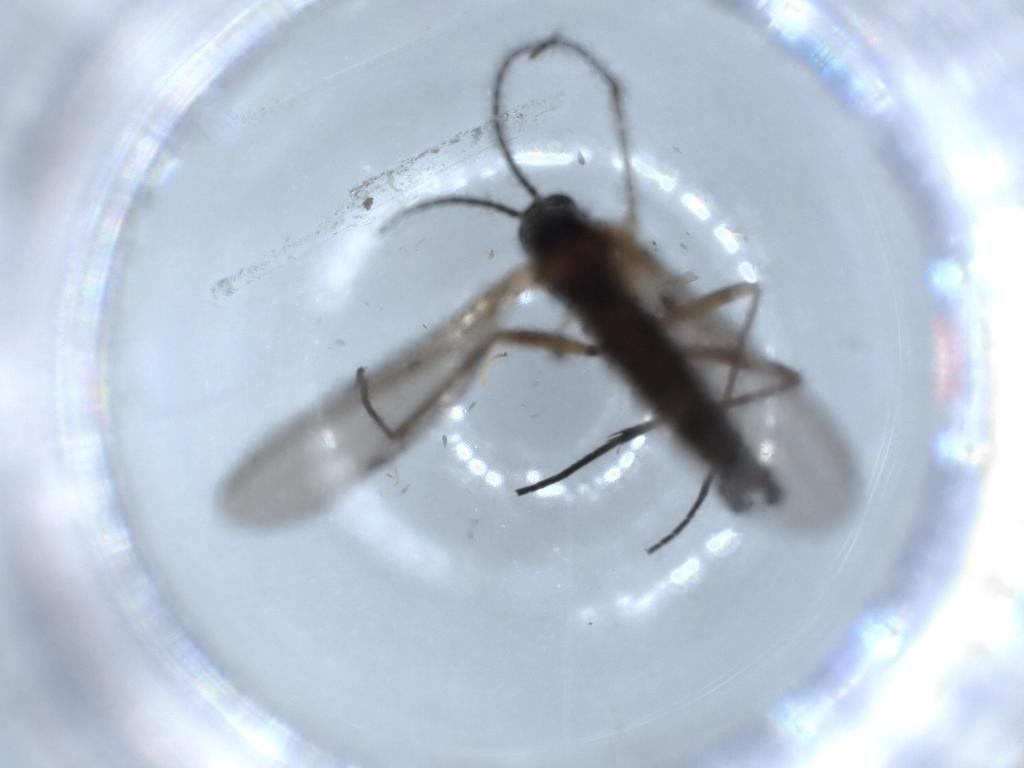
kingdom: Animalia
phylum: Arthropoda
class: Insecta
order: Diptera
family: Sciaridae
